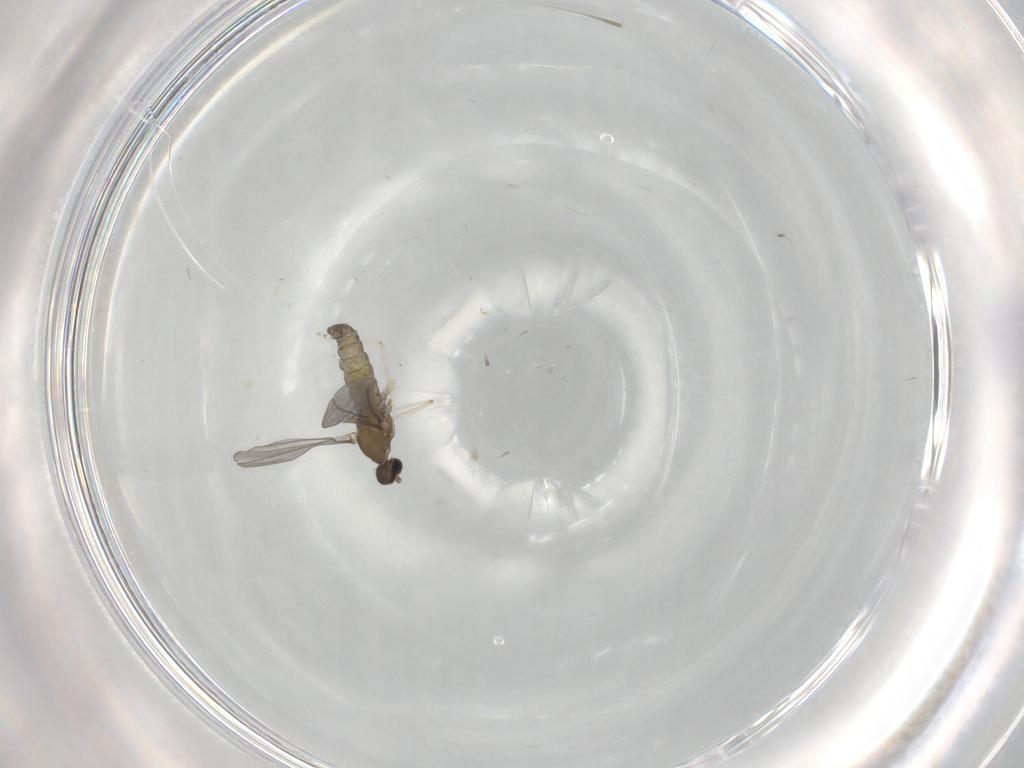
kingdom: Animalia
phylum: Arthropoda
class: Insecta
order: Diptera
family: Cecidomyiidae
